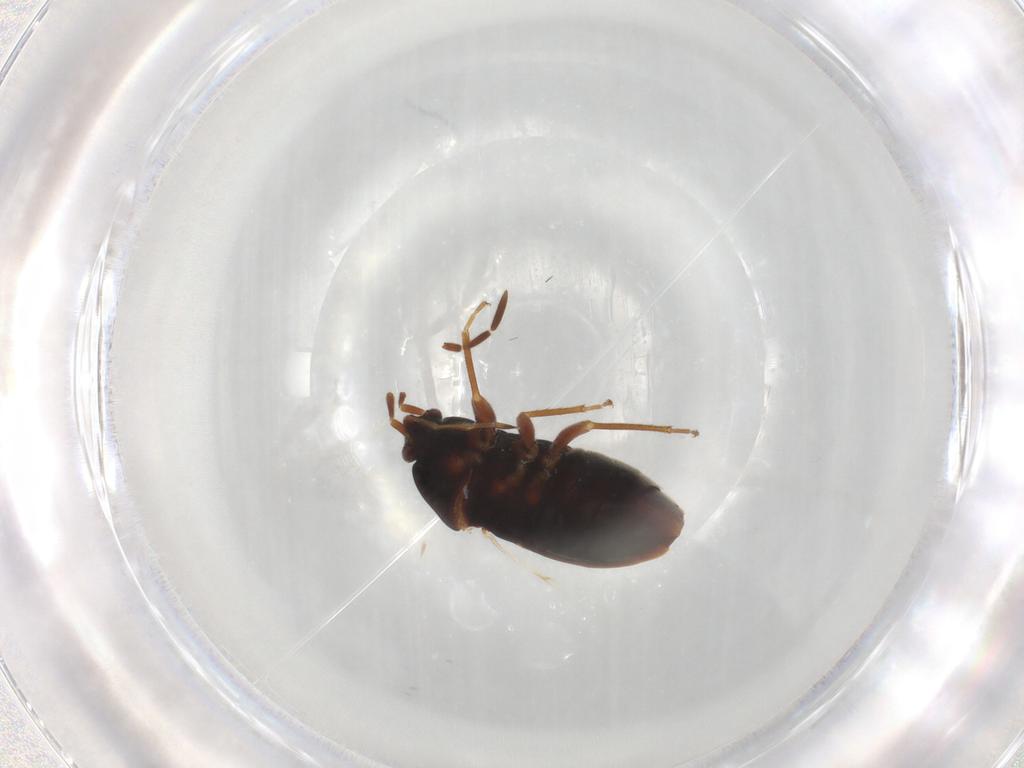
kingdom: Animalia
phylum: Arthropoda
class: Insecta
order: Hemiptera
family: Rhyparochromidae
